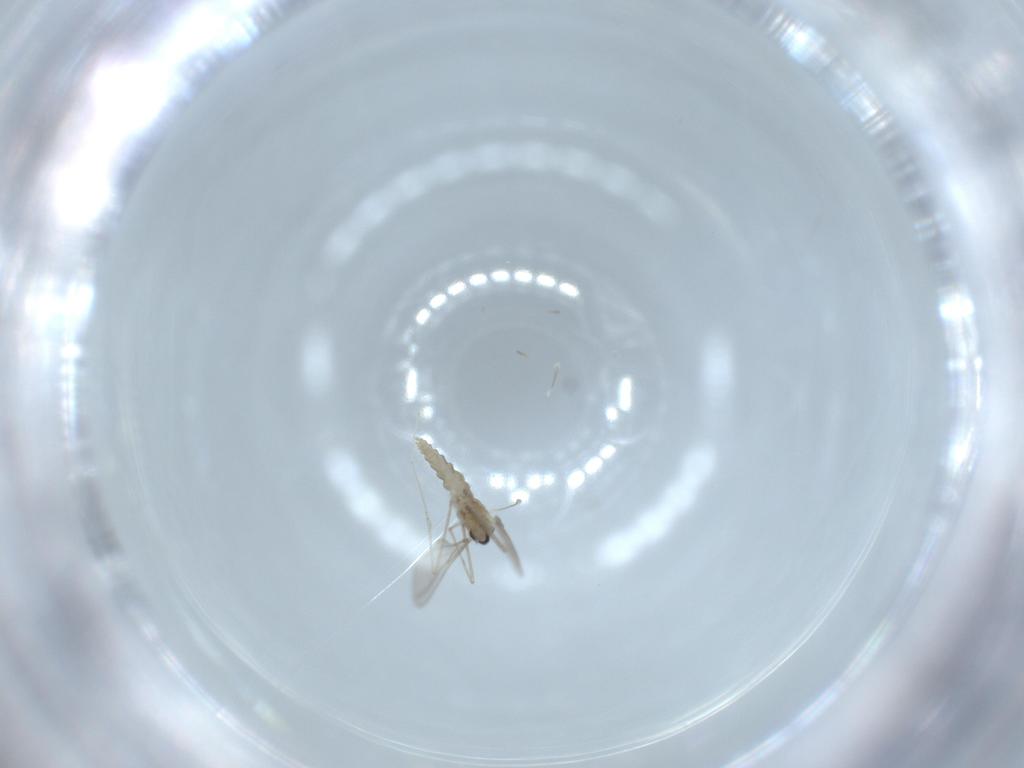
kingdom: Animalia
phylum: Arthropoda
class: Insecta
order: Diptera
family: Cecidomyiidae
